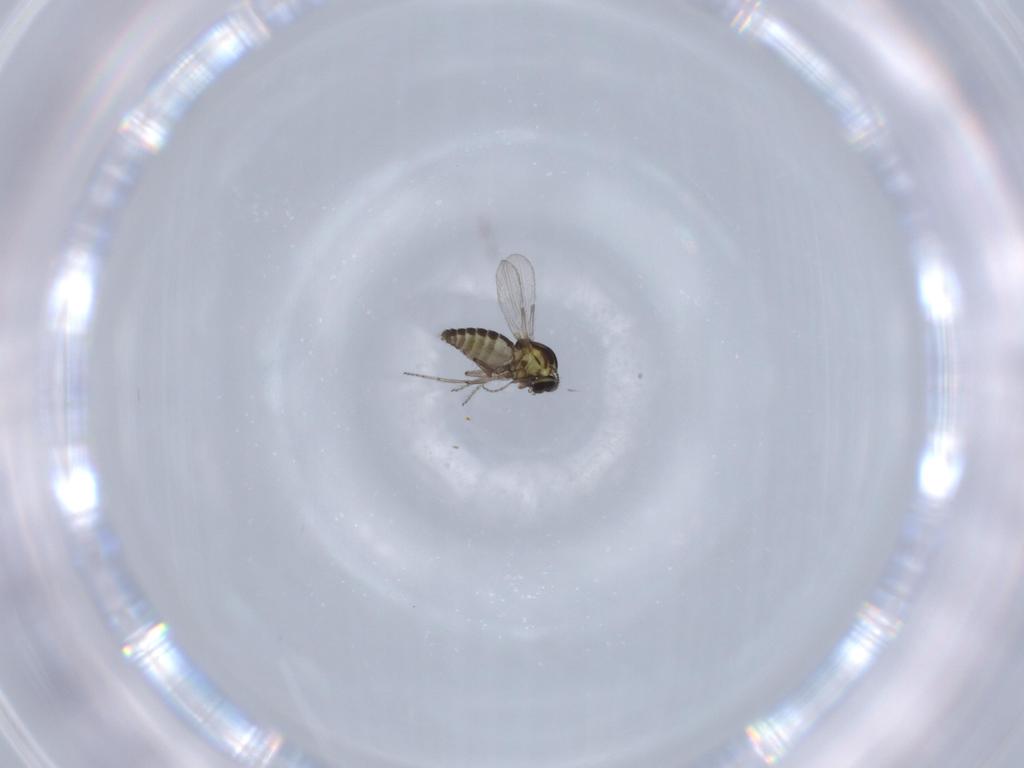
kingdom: Animalia
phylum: Arthropoda
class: Insecta
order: Diptera
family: Ceratopogonidae
